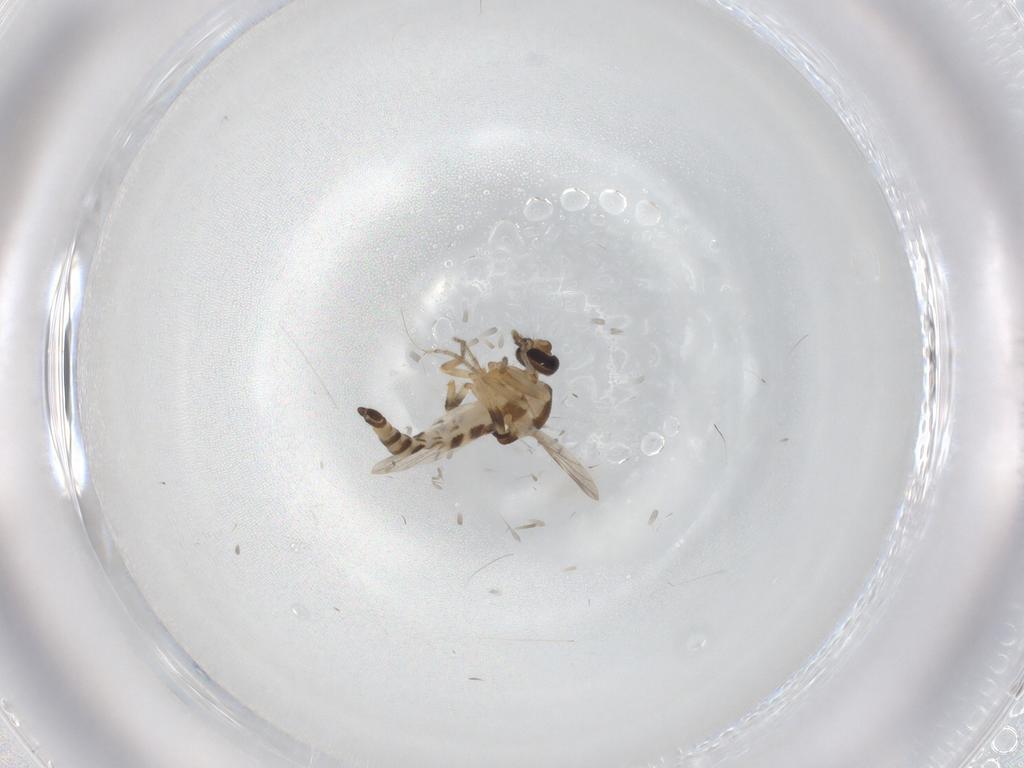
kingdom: Animalia
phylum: Arthropoda
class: Insecta
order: Diptera
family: Ceratopogonidae
